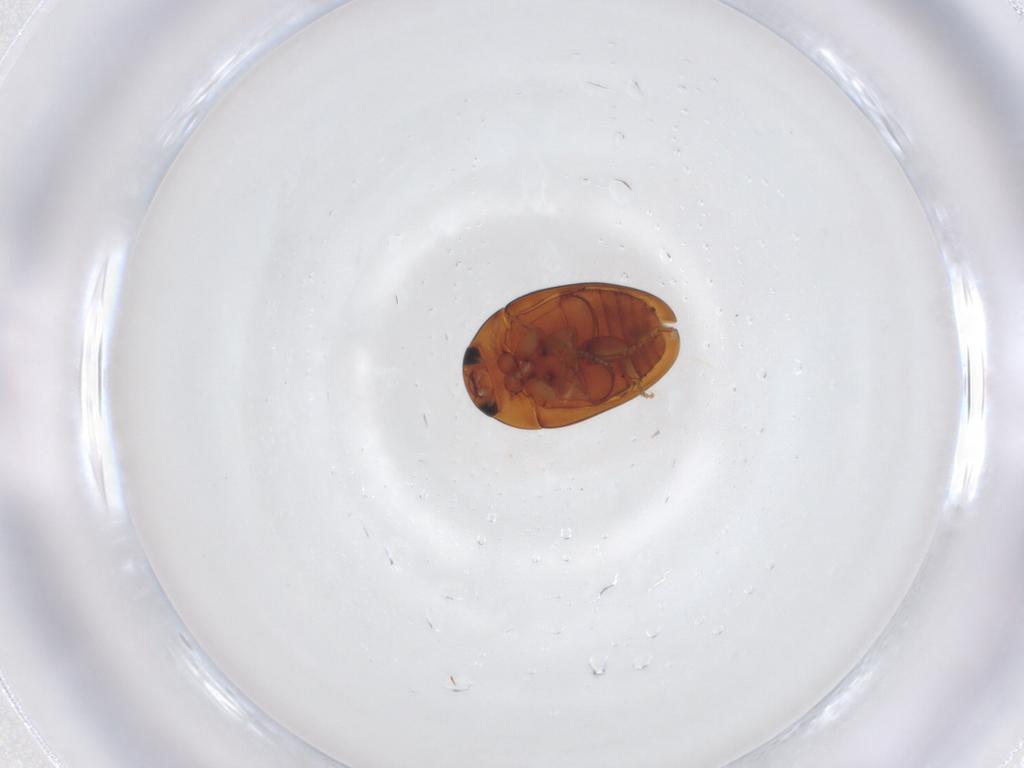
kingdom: Animalia
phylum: Arthropoda
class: Insecta
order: Coleoptera
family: Phalacridae
